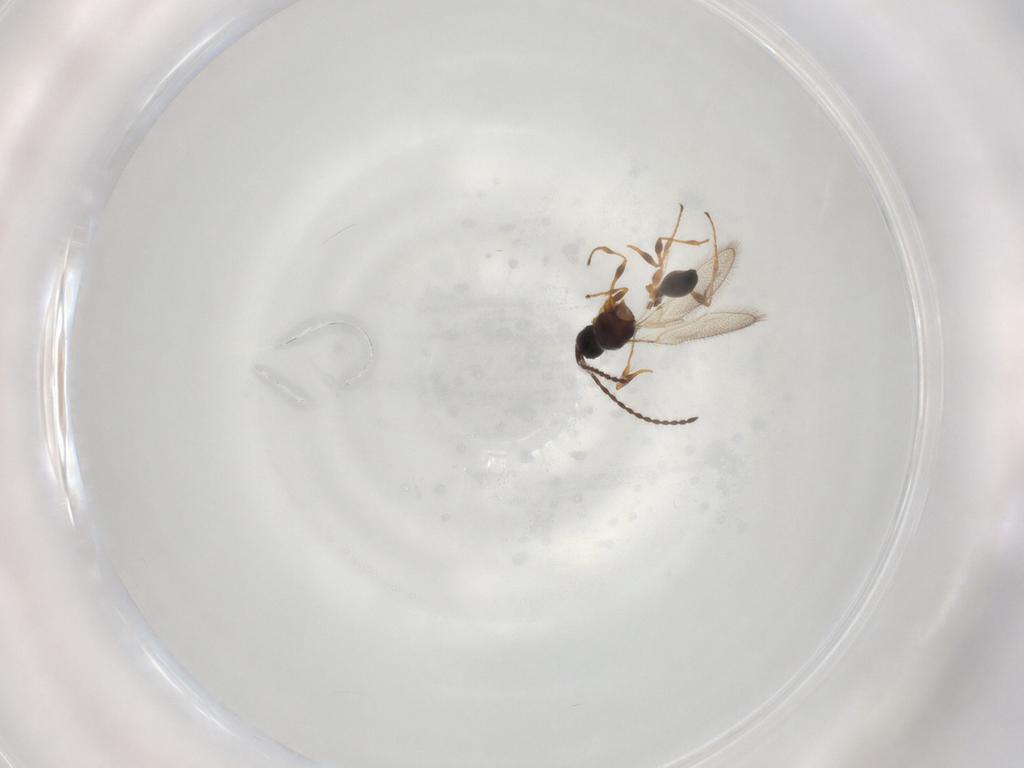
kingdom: Animalia
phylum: Arthropoda
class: Insecta
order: Hymenoptera
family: Diapriidae
